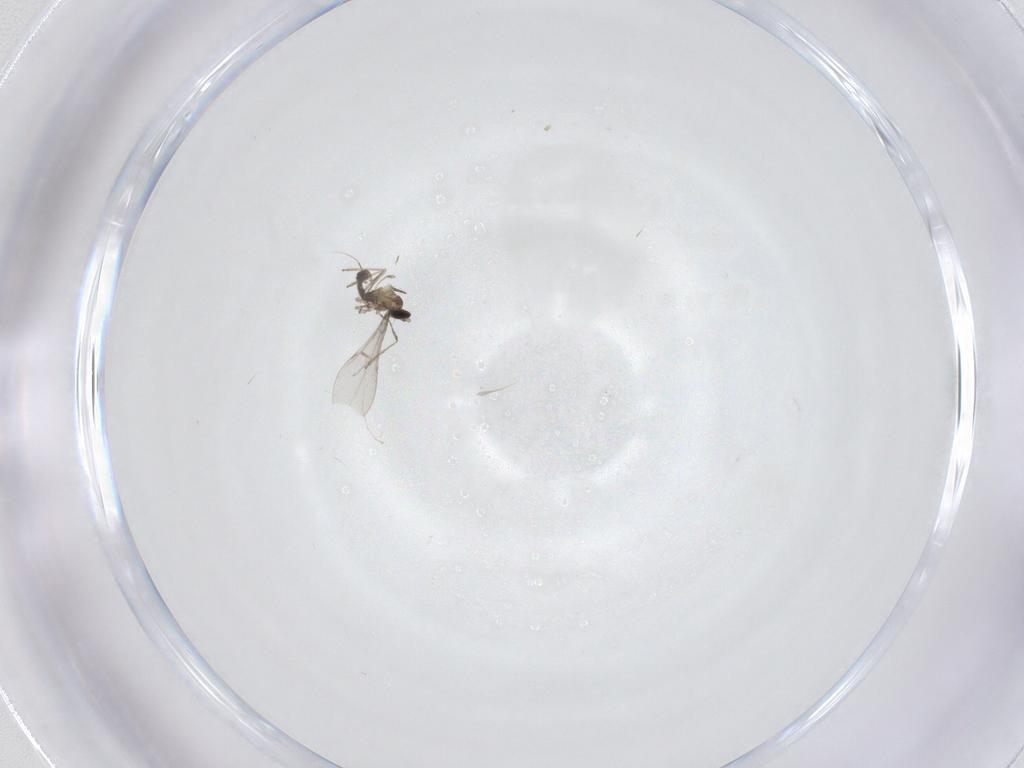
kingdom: Animalia
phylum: Arthropoda
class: Insecta
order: Diptera
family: Cecidomyiidae
